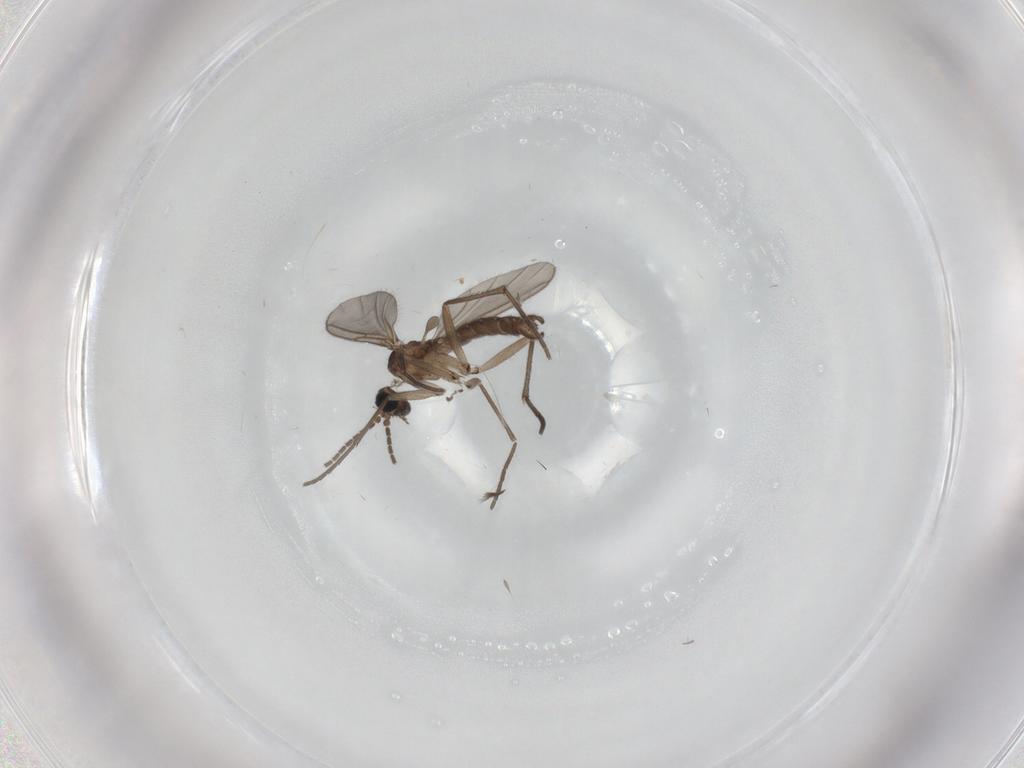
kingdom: Animalia
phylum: Arthropoda
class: Insecta
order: Diptera
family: Sciaridae
